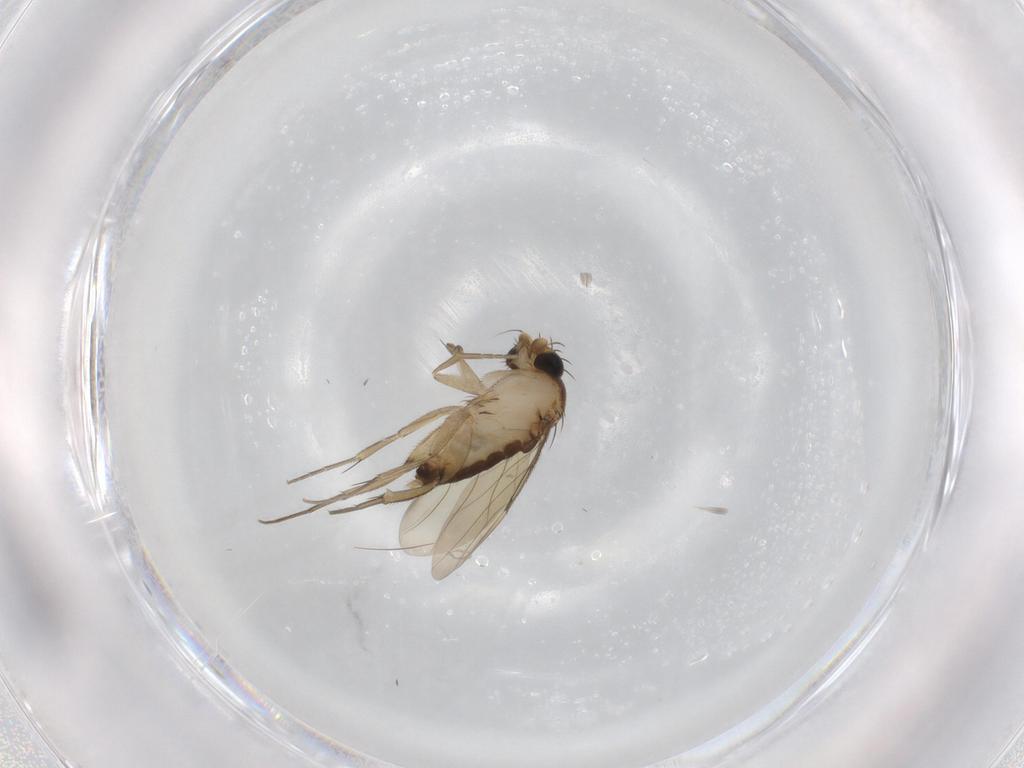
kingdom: Animalia
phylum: Arthropoda
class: Insecta
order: Diptera
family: Phoridae
